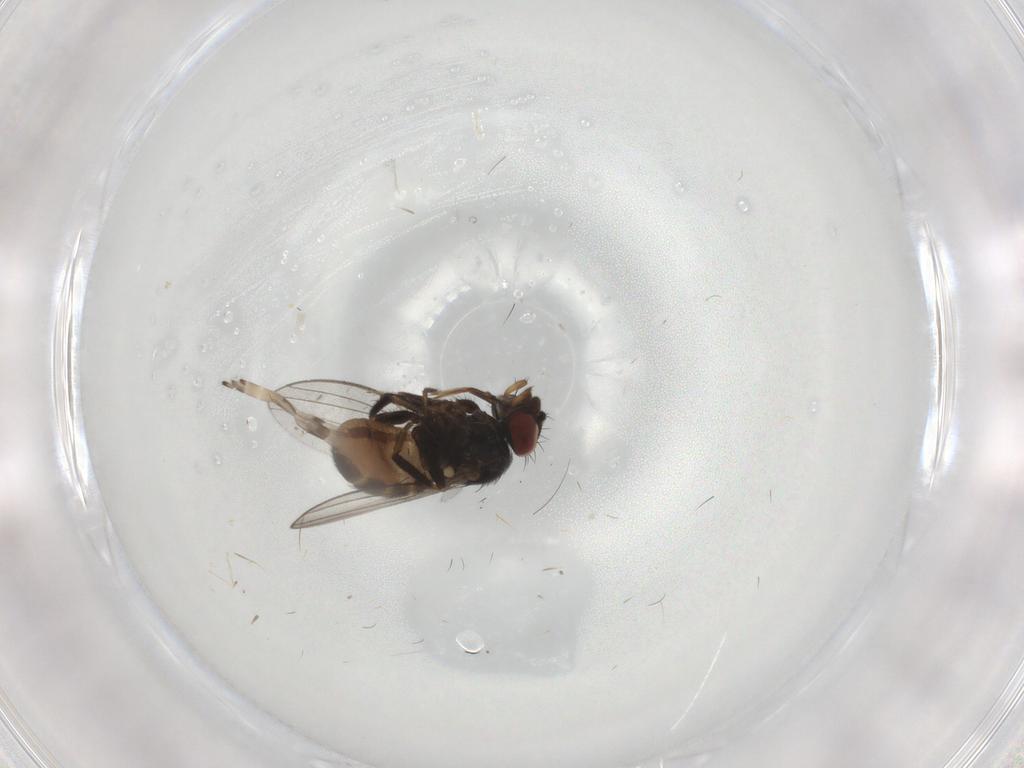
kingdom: Animalia
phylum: Arthropoda
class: Insecta
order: Diptera
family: Milichiidae
